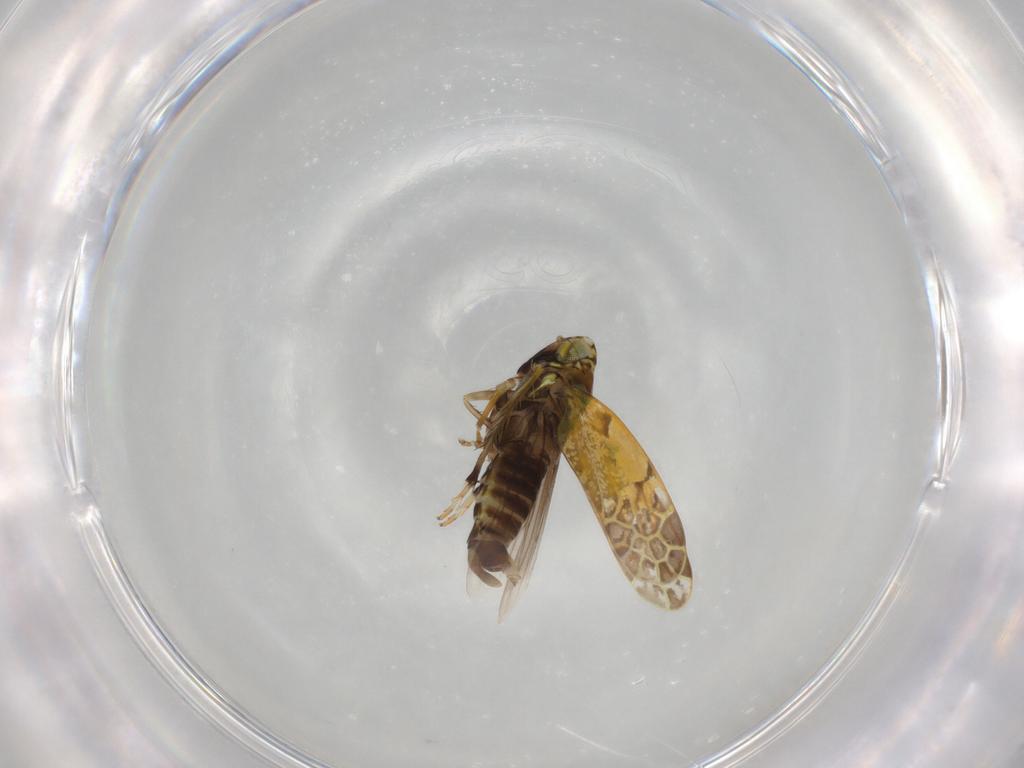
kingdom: Animalia
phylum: Arthropoda
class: Insecta
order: Hemiptera
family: Cicadellidae
